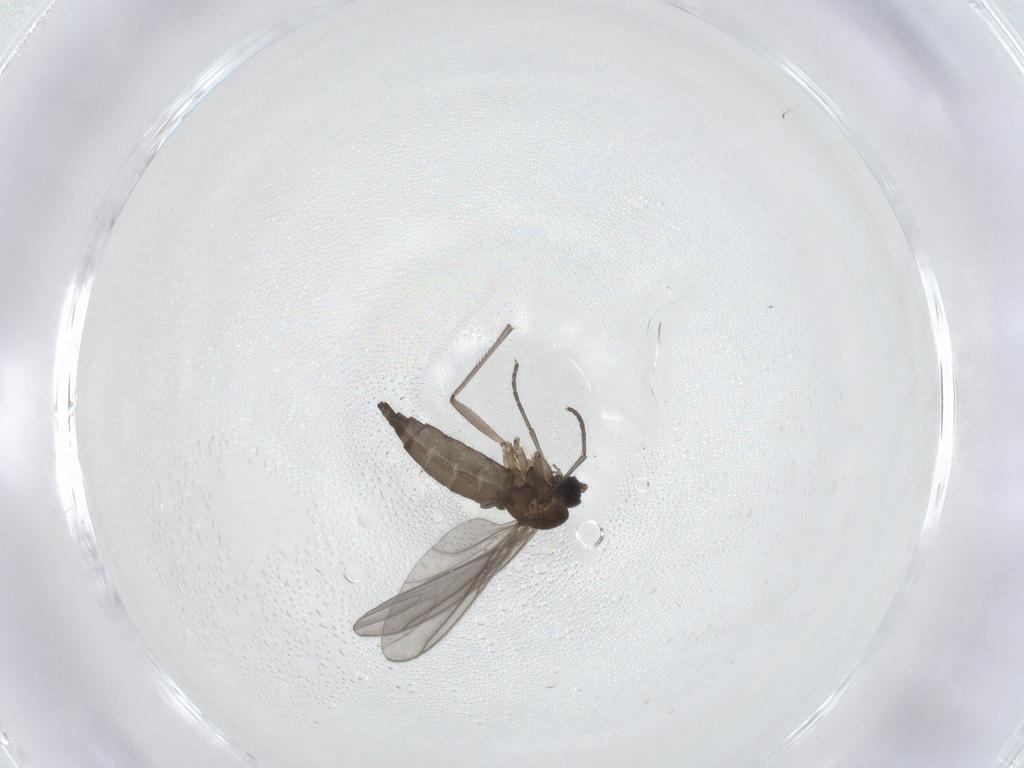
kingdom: Animalia
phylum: Arthropoda
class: Insecta
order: Diptera
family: Sciaridae
